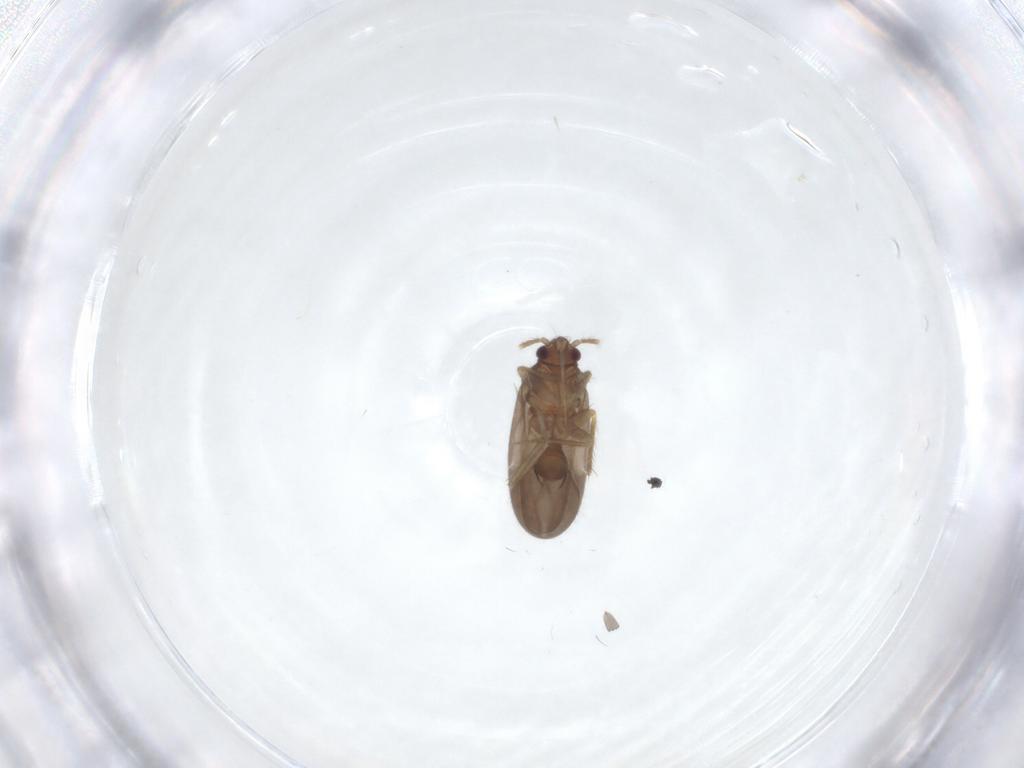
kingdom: Animalia
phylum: Arthropoda
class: Insecta
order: Hemiptera
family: Ceratocombidae
